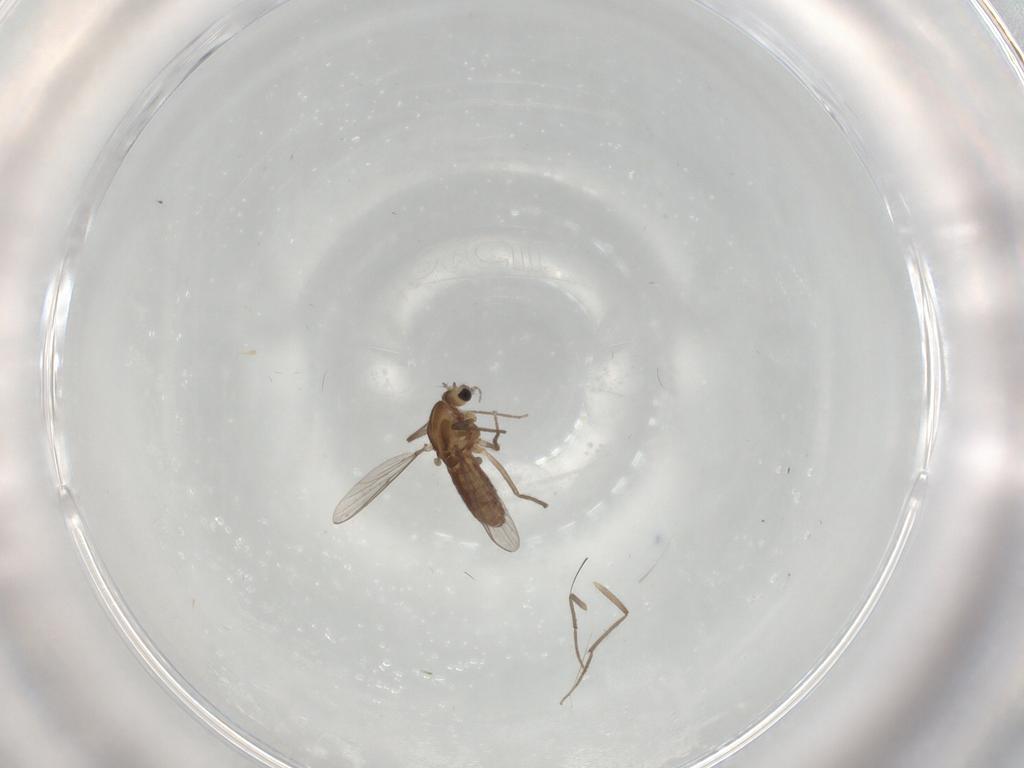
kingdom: Animalia
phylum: Arthropoda
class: Insecta
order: Diptera
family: Chironomidae
